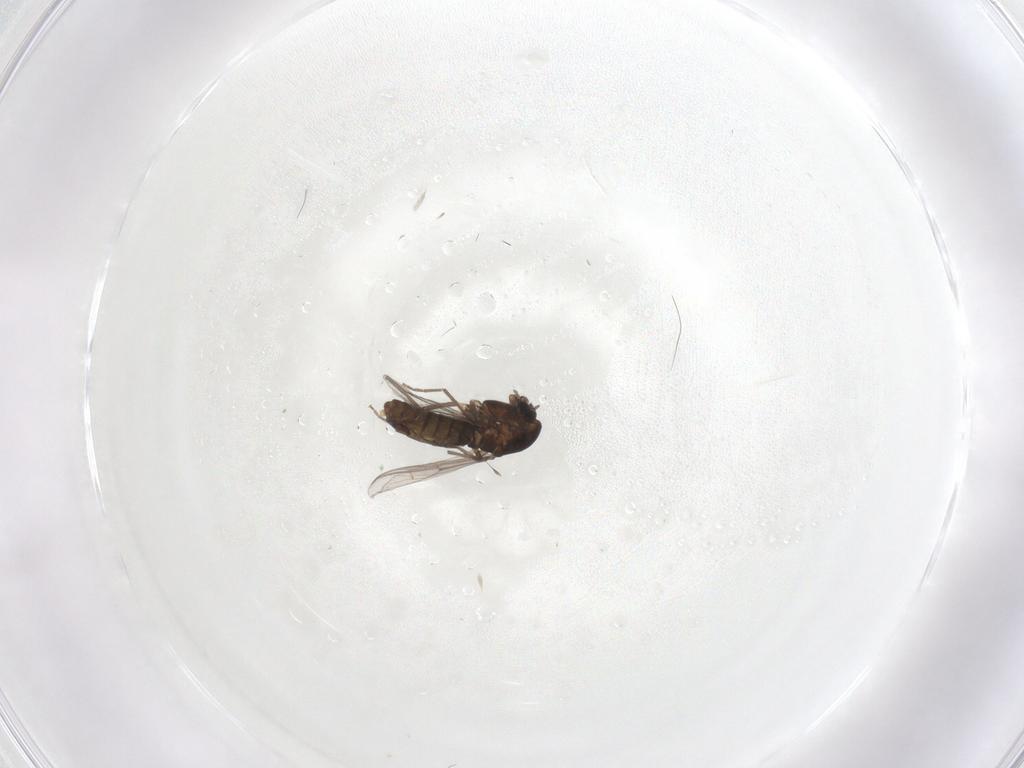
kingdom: Animalia
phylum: Arthropoda
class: Insecta
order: Diptera
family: Chironomidae
